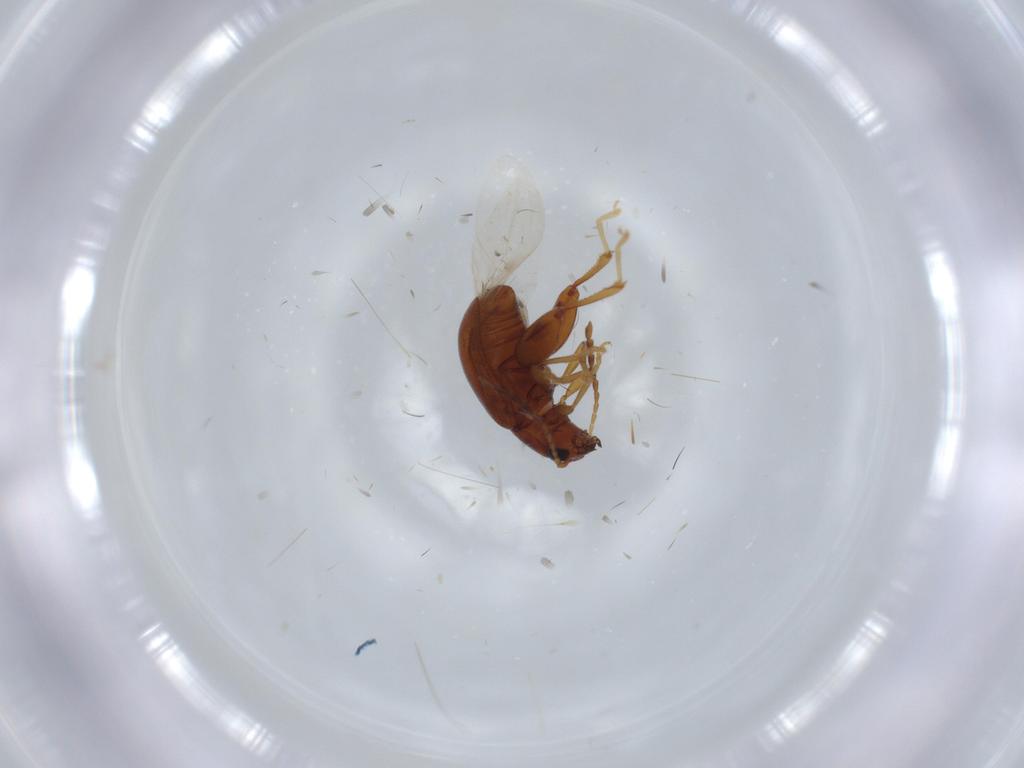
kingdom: Animalia
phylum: Arthropoda
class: Insecta
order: Coleoptera
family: Chrysomelidae
